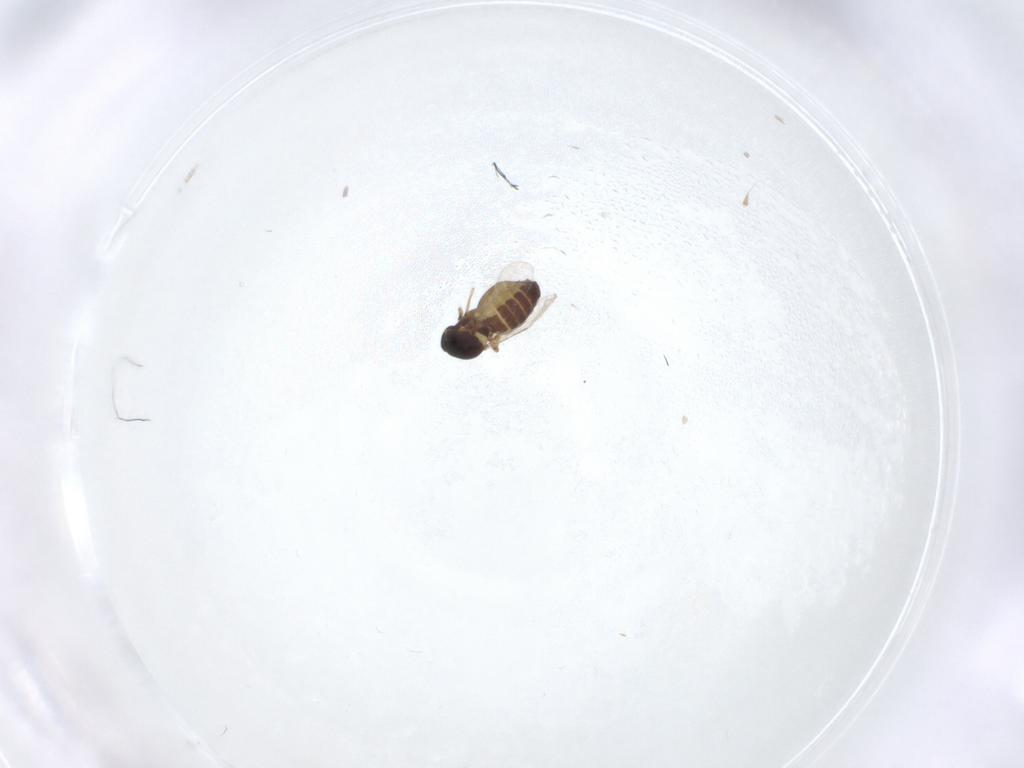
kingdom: Animalia
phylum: Arthropoda
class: Insecta
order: Diptera
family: Ceratopogonidae
